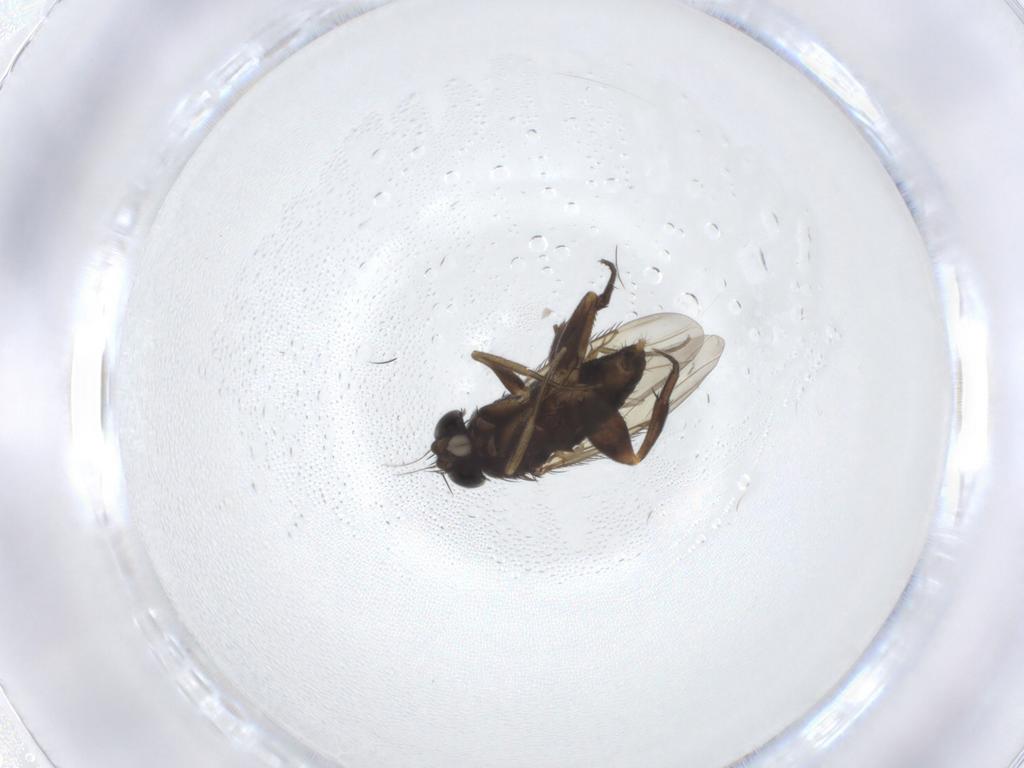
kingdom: Animalia
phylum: Arthropoda
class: Insecta
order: Diptera
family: Phoridae
